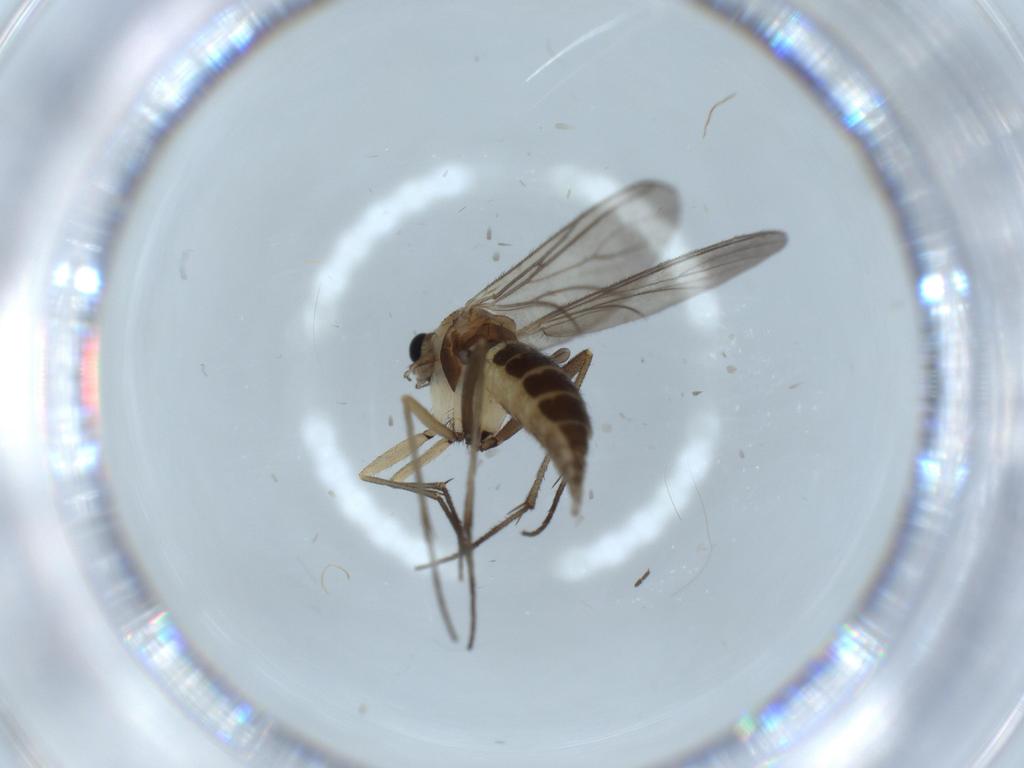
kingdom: Animalia
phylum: Arthropoda
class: Insecta
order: Diptera
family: Sciaridae
